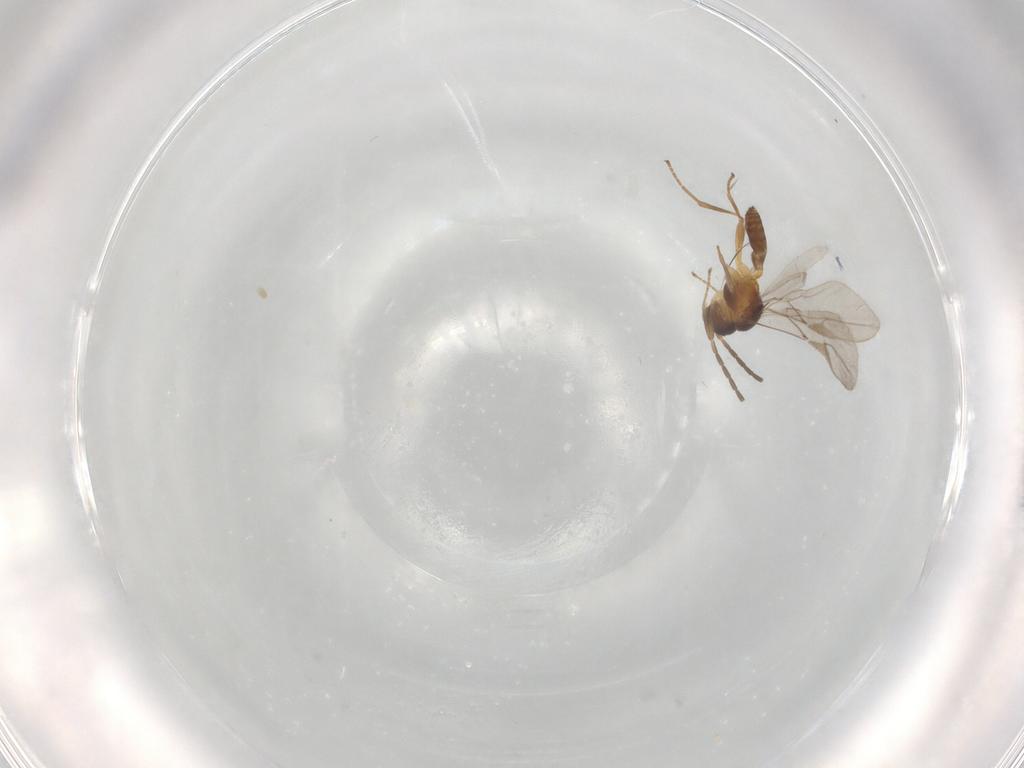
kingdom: Animalia
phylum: Arthropoda
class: Insecta
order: Hymenoptera
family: Braconidae
